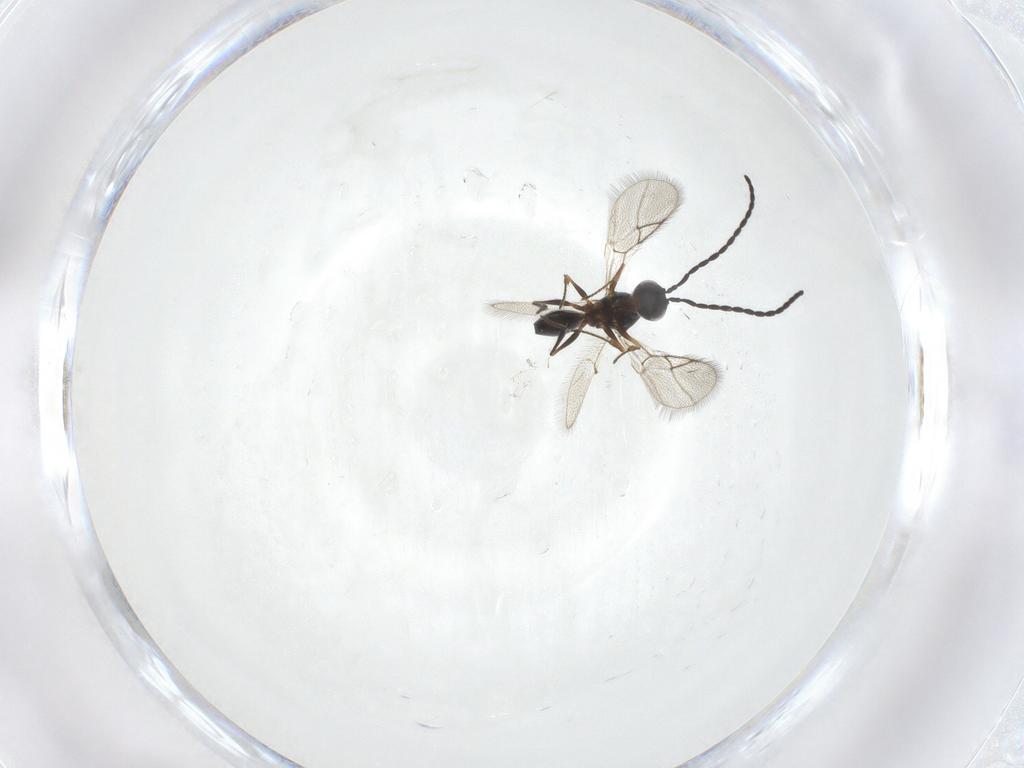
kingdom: Animalia
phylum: Arthropoda
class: Insecta
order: Hymenoptera
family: Figitidae
